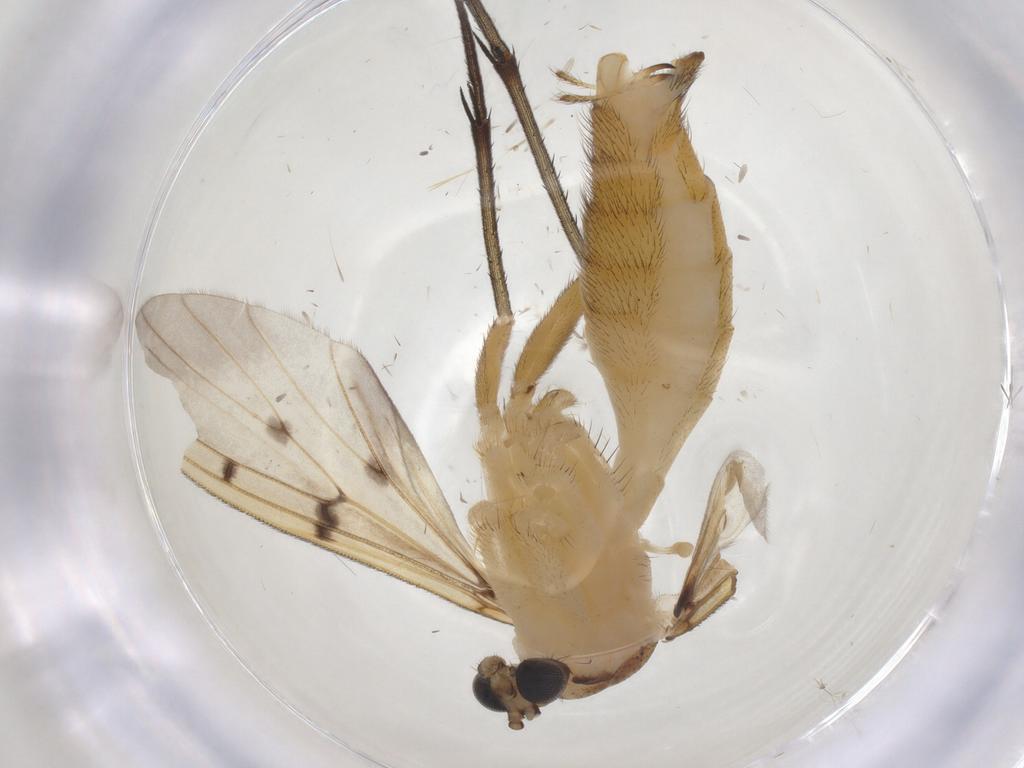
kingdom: Animalia
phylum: Arthropoda
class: Insecta
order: Diptera
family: Mycetophilidae
